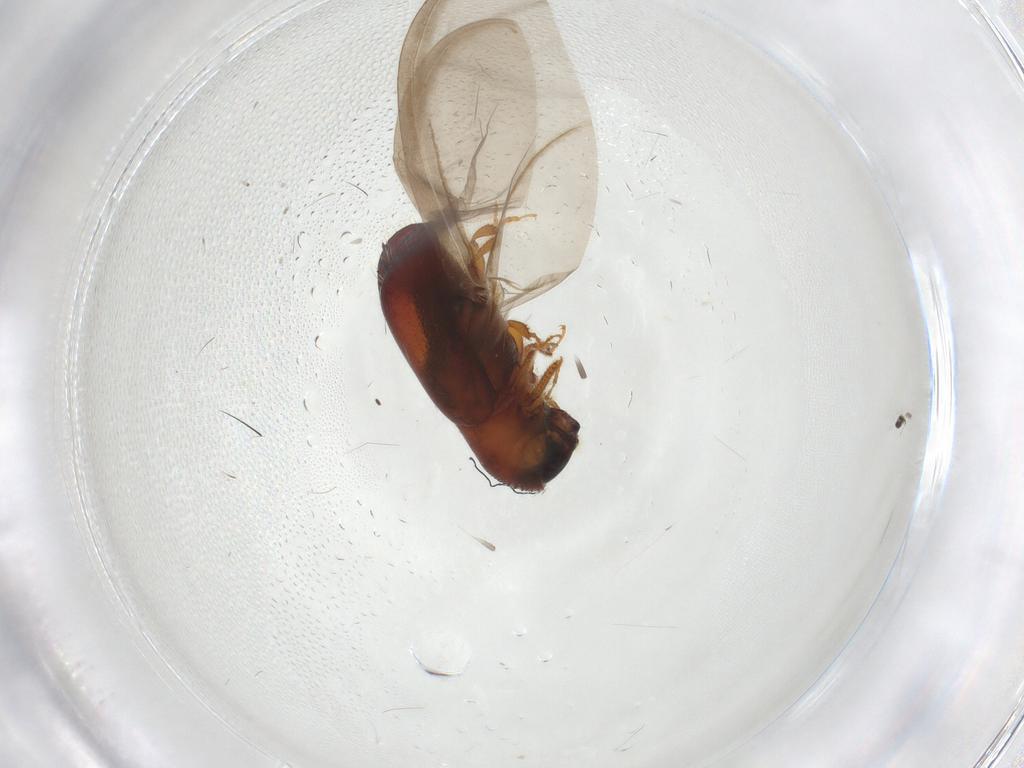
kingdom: Animalia
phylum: Arthropoda
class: Insecta
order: Coleoptera
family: Curculionidae
